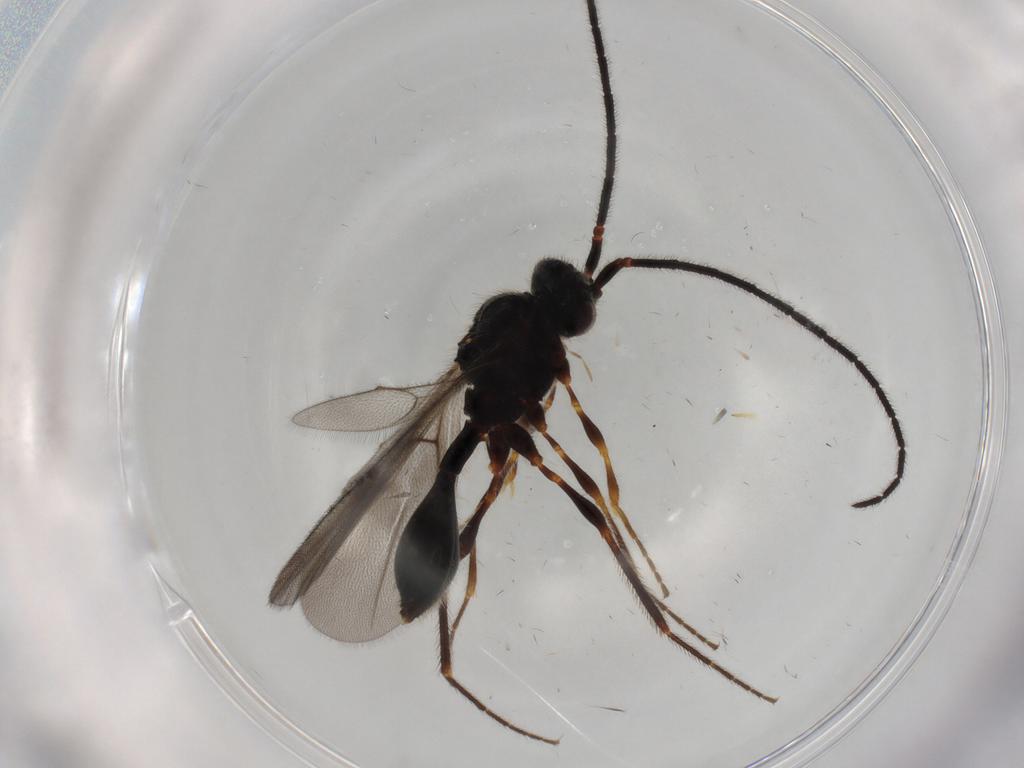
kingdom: Animalia
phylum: Arthropoda
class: Insecta
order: Hymenoptera
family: Diapriidae
